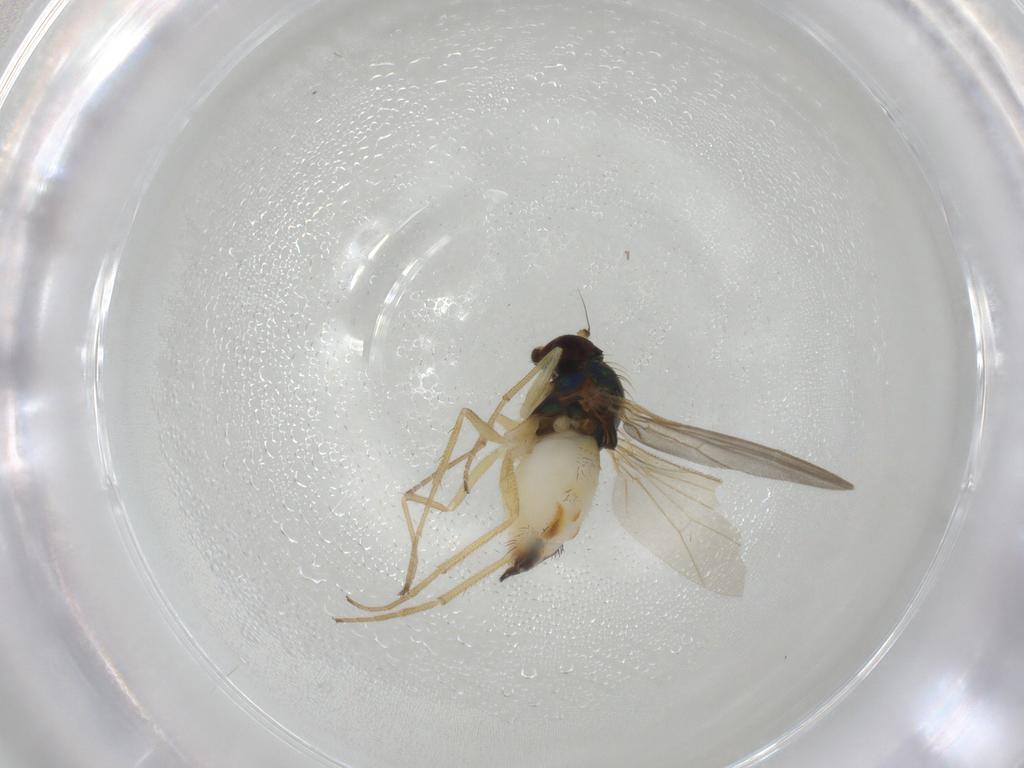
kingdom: Animalia
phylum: Arthropoda
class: Insecta
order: Diptera
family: Dolichopodidae
